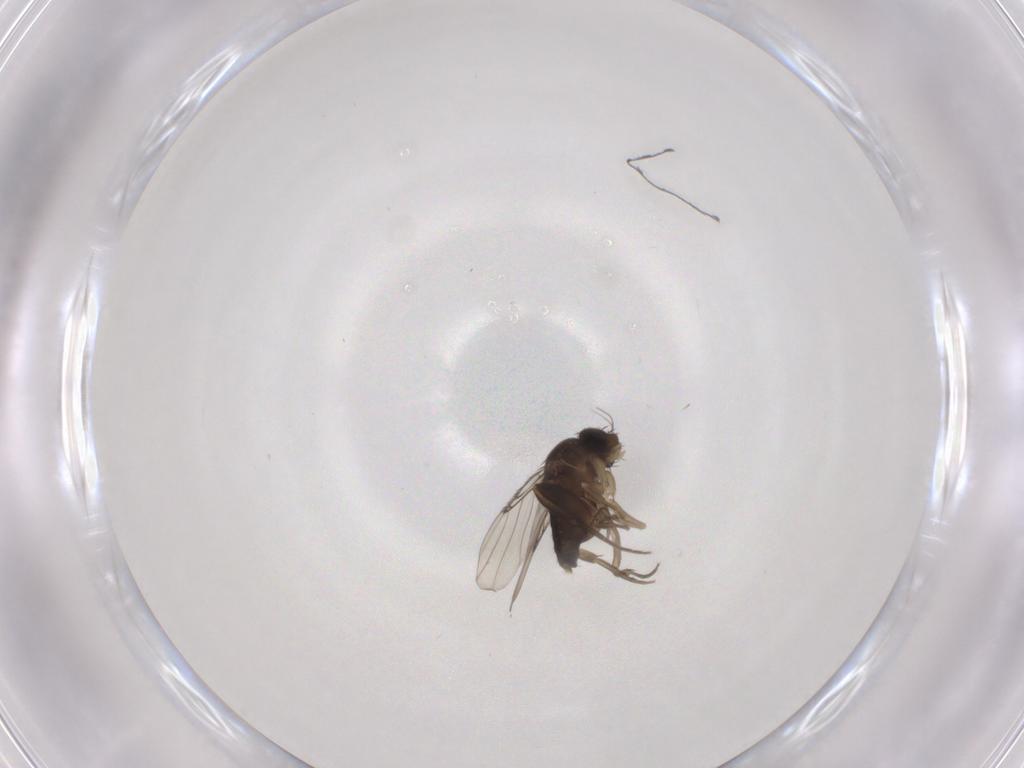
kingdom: Animalia
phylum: Arthropoda
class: Insecta
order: Diptera
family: Phoridae
